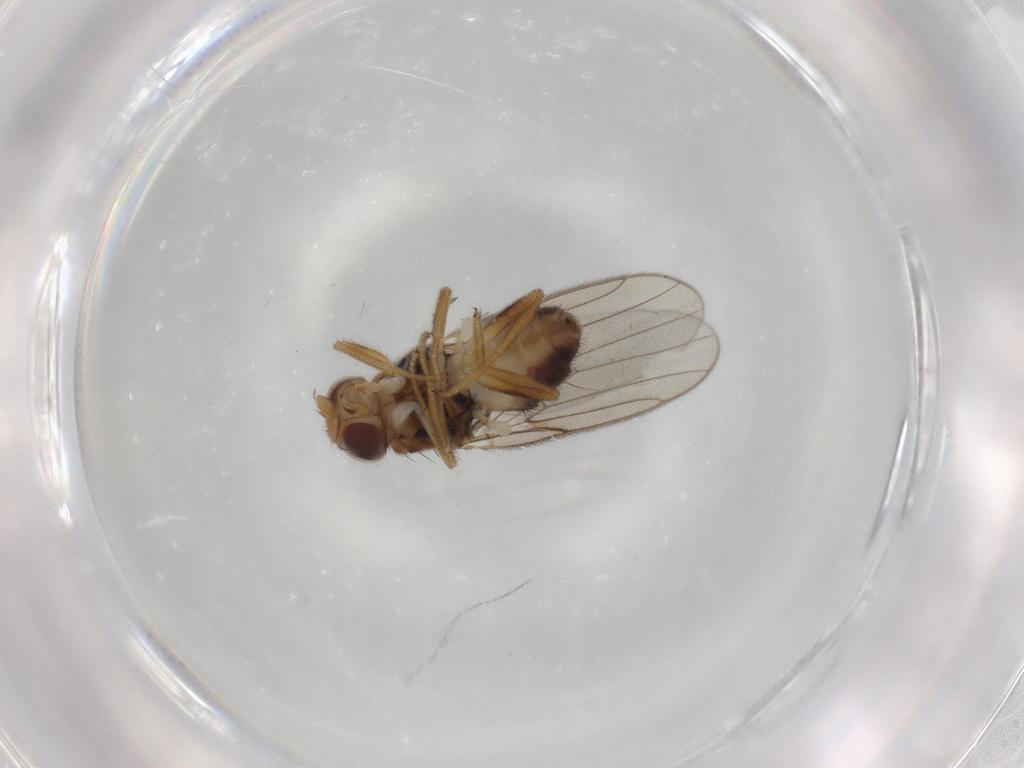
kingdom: Animalia
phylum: Arthropoda
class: Insecta
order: Diptera
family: Chloropidae
